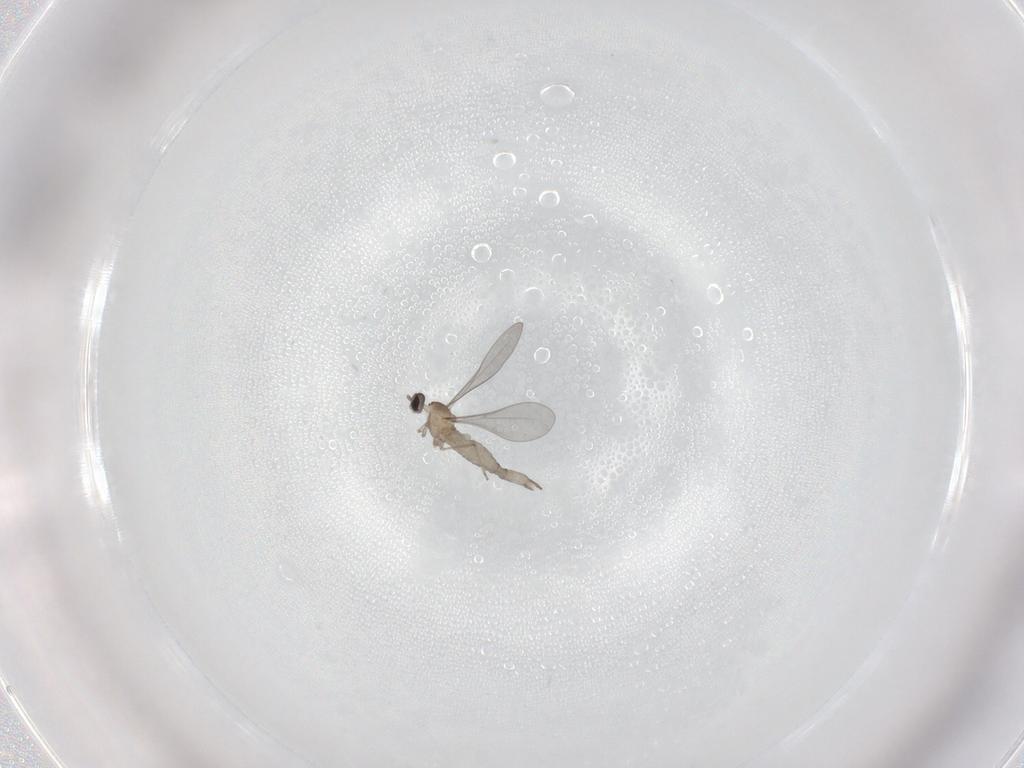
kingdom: Animalia
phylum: Arthropoda
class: Insecta
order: Diptera
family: Cecidomyiidae
